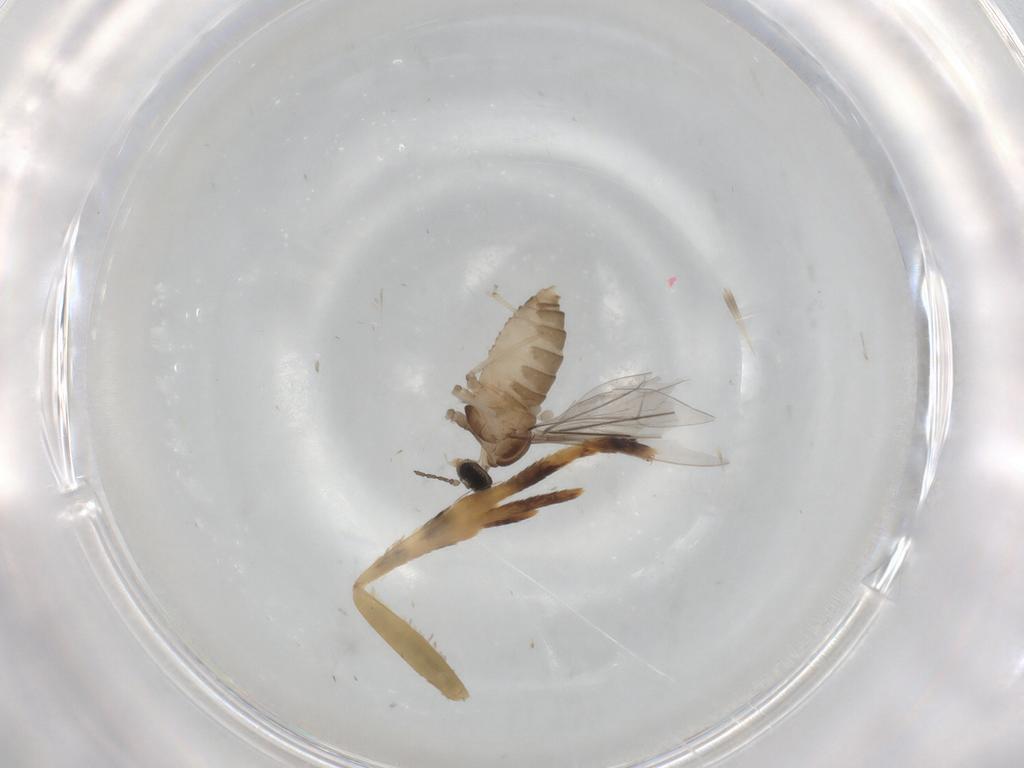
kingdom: Animalia
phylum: Arthropoda
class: Insecta
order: Diptera
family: Cecidomyiidae
